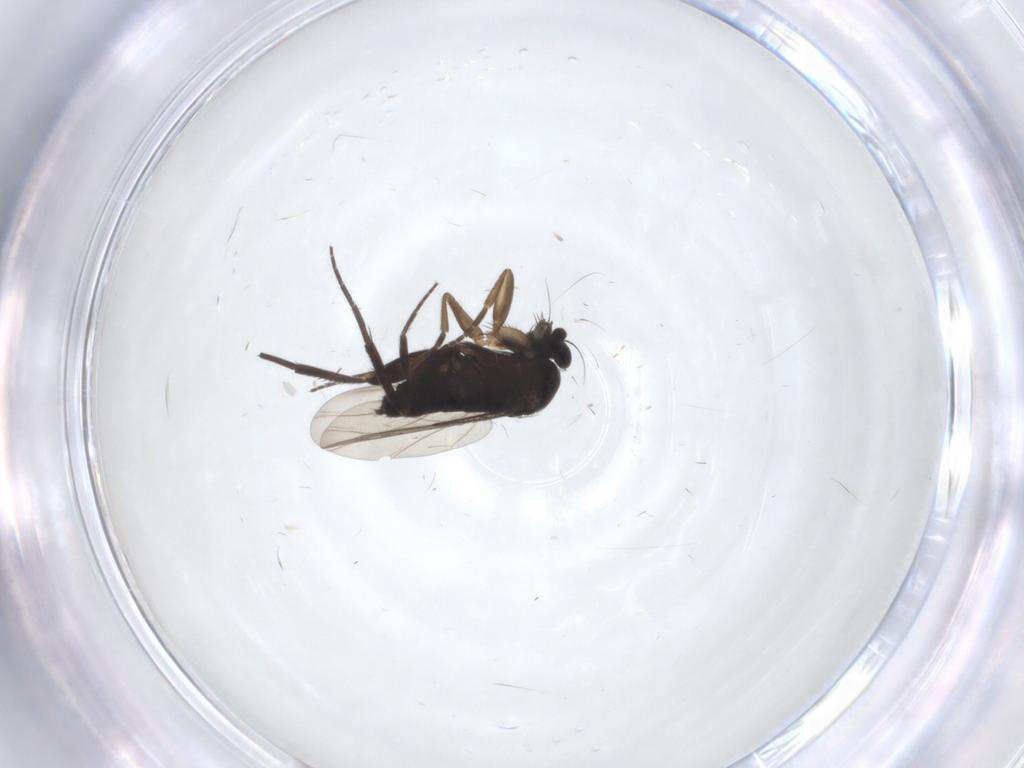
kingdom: Animalia
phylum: Arthropoda
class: Insecta
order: Diptera
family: Phoridae
